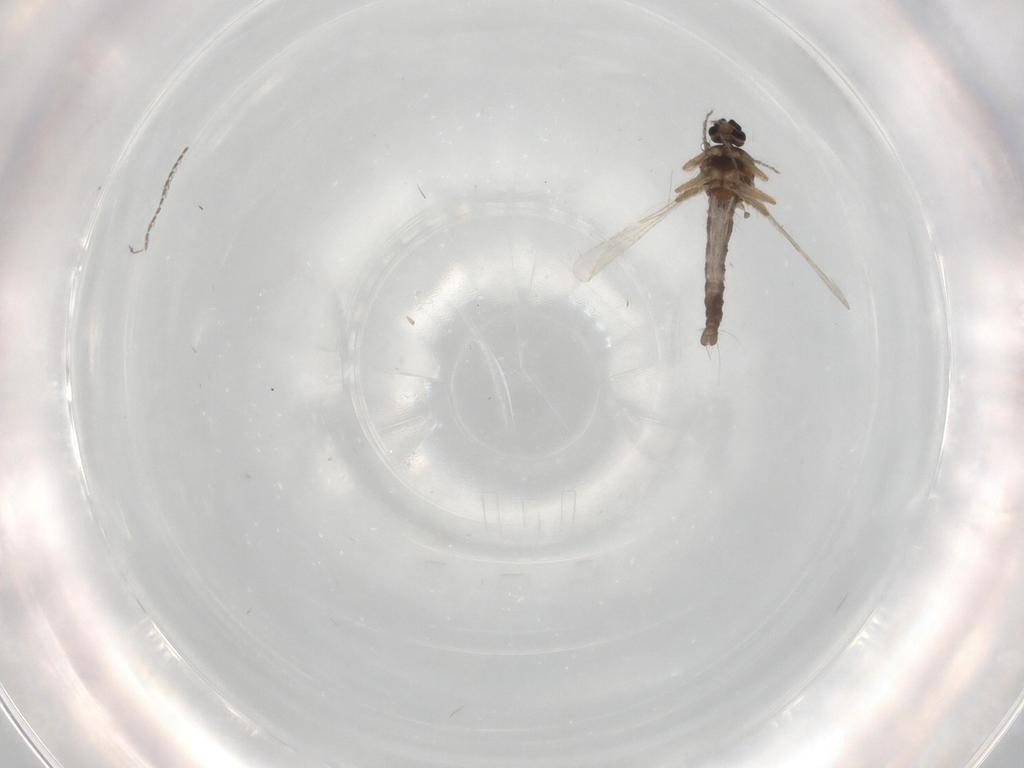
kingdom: Animalia
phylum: Arthropoda
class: Insecta
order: Diptera
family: Ceratopogonidae
